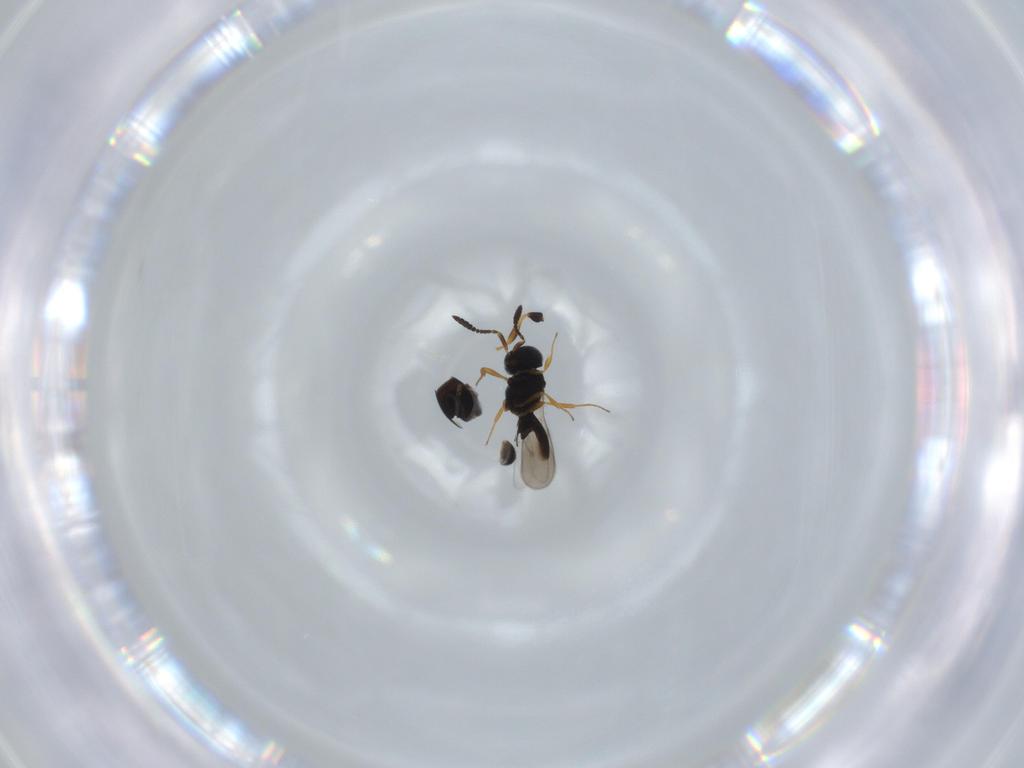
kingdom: Animalia
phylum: Arthropoda
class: Insecta
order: Hymenoptera
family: Scelionidae
